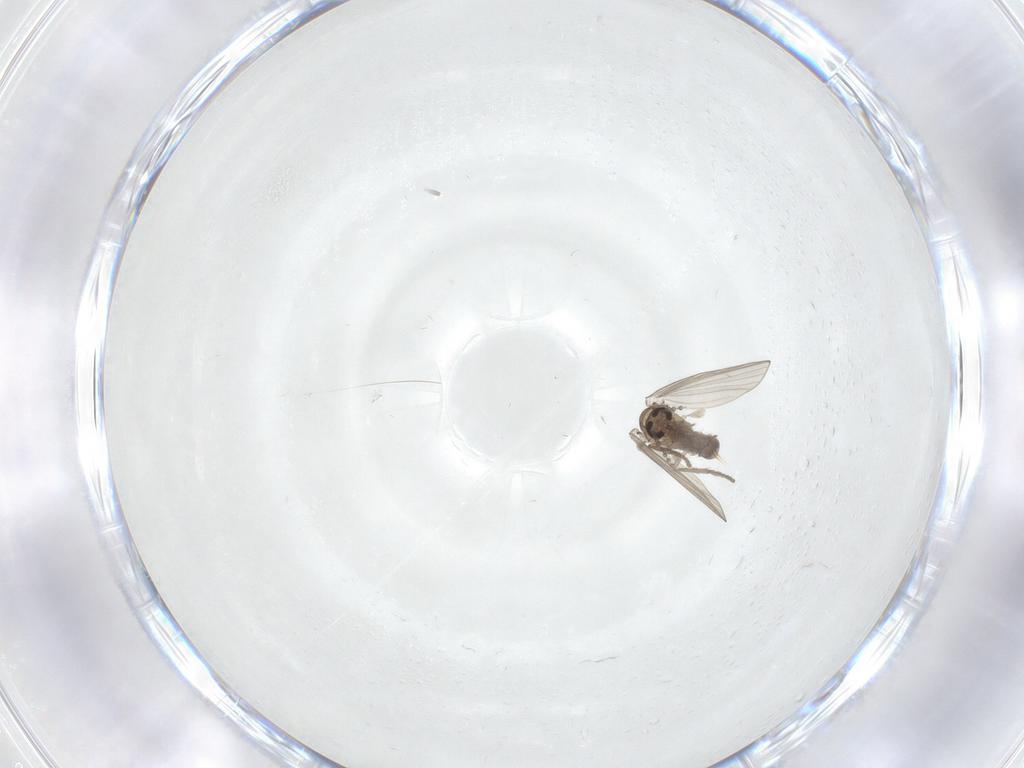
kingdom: Animalia
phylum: Arthropoda
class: Insecta
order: Diptera
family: Psychodidae
